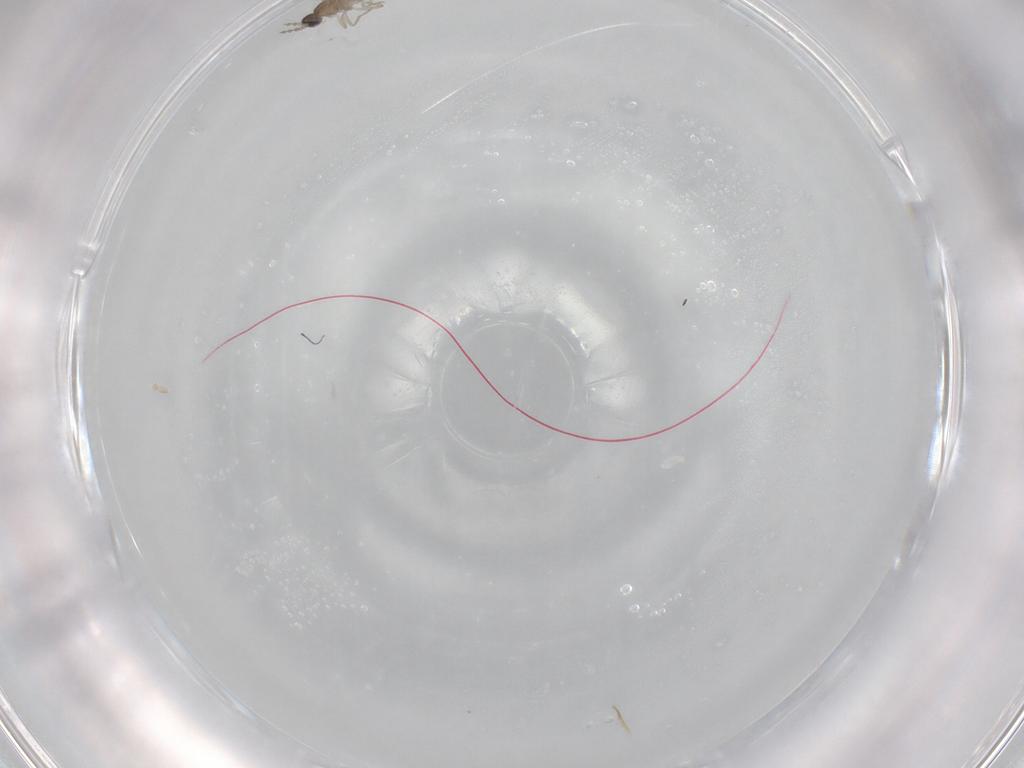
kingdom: Animalia
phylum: Arthropoda
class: Insecta
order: Diptera
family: Cecidomyiidae
